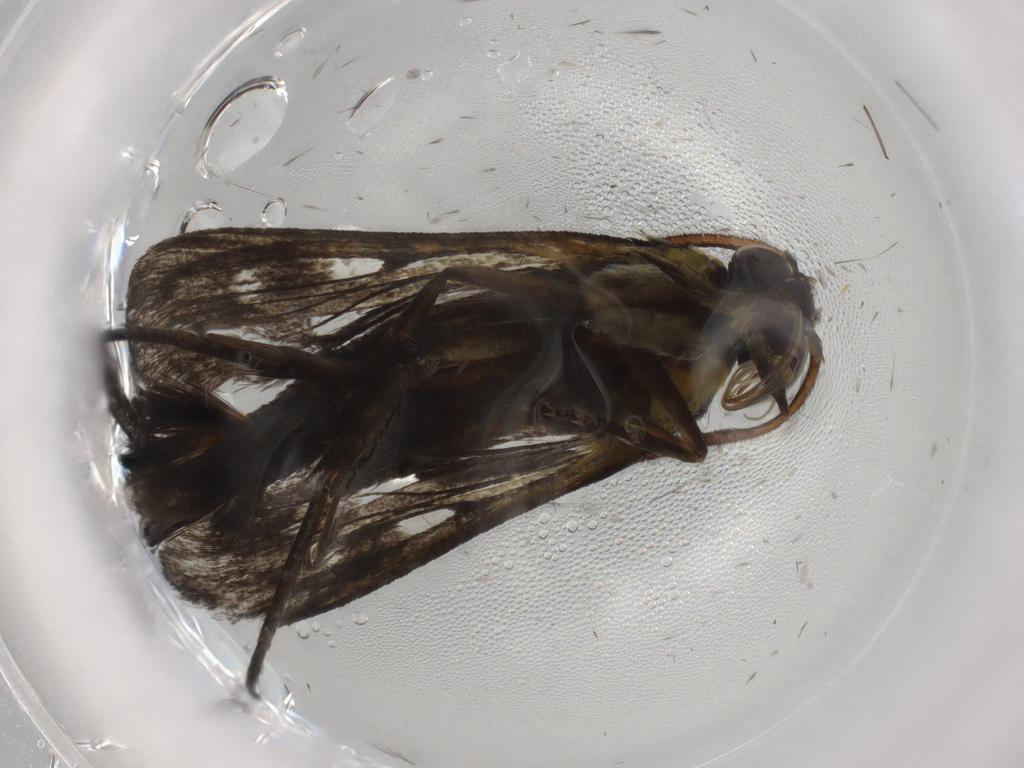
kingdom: Animalia
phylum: Arthropoda
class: Insecta
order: Lepidoptera
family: Sesiidae
